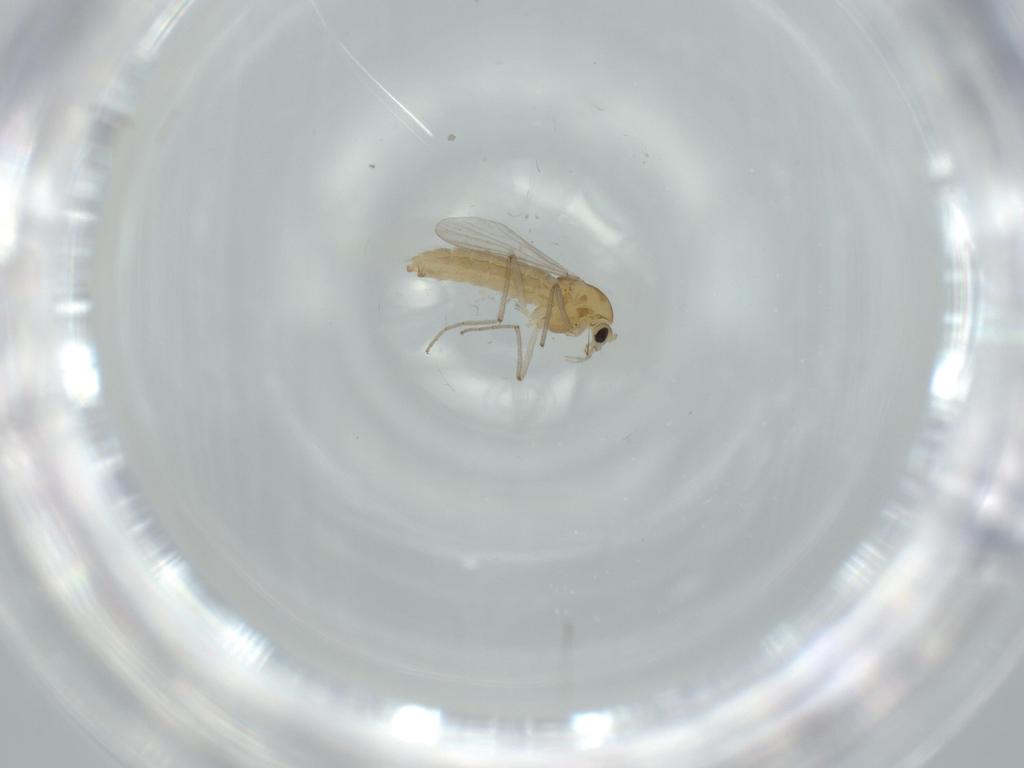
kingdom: Animalia
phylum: Arthropoda
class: Insecta
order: Diptera
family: Chironomidae
